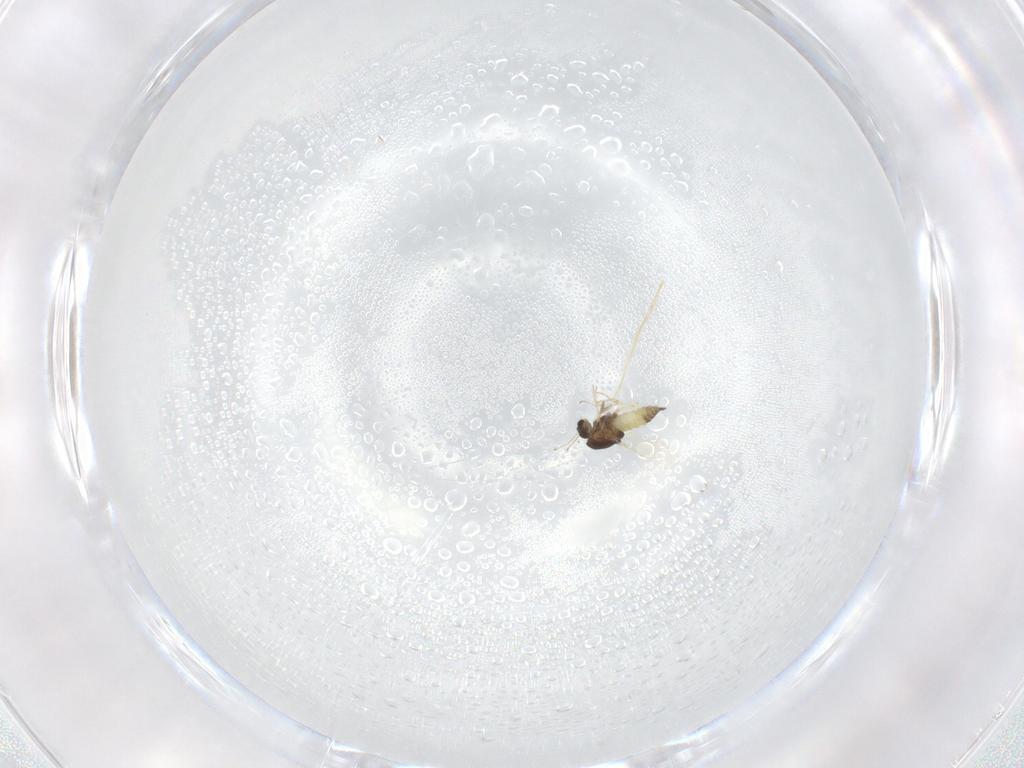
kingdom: Animalia
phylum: Arthropoda
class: Insecta
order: Diptera
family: Chironomidae
